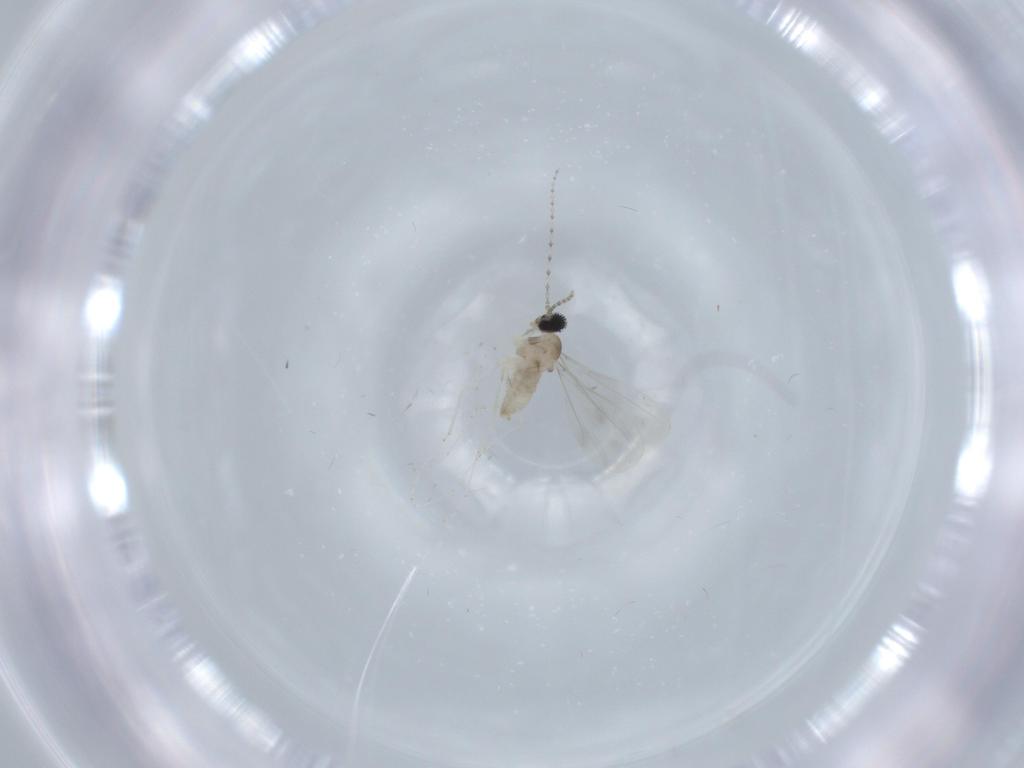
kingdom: Animalia
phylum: Arthropoda
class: Insecta
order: Diptera
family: Cecidomyiidae
